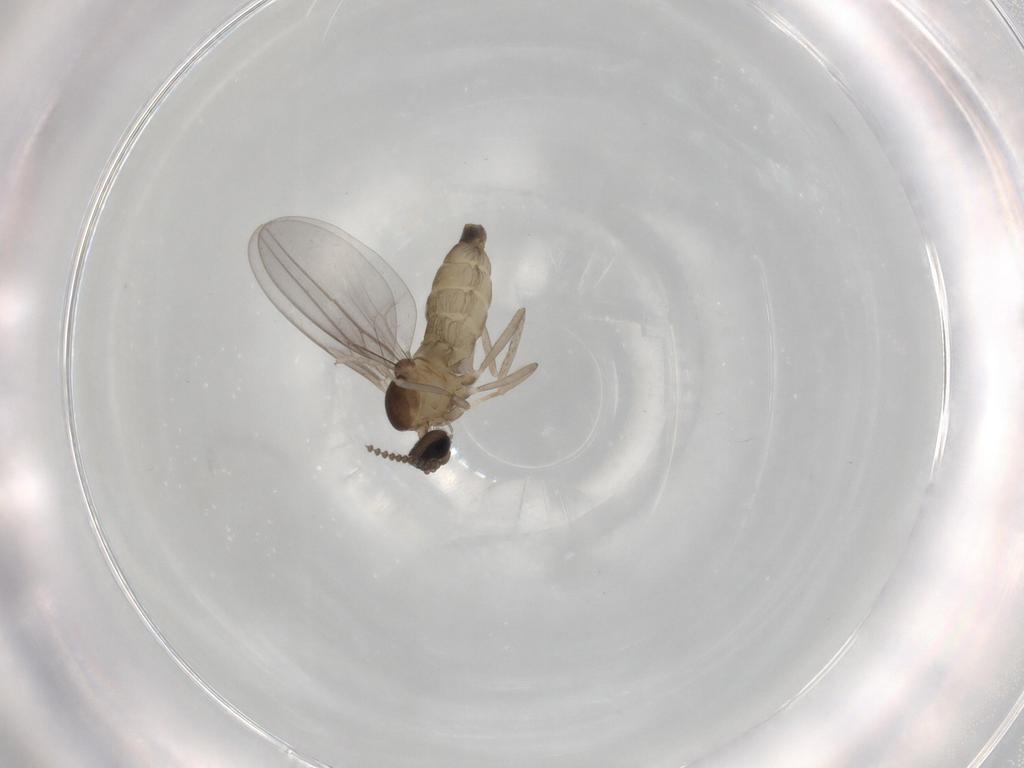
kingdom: Animalia
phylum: Arthropoda
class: Insecta
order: Diptera
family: Cecidomyiidae
